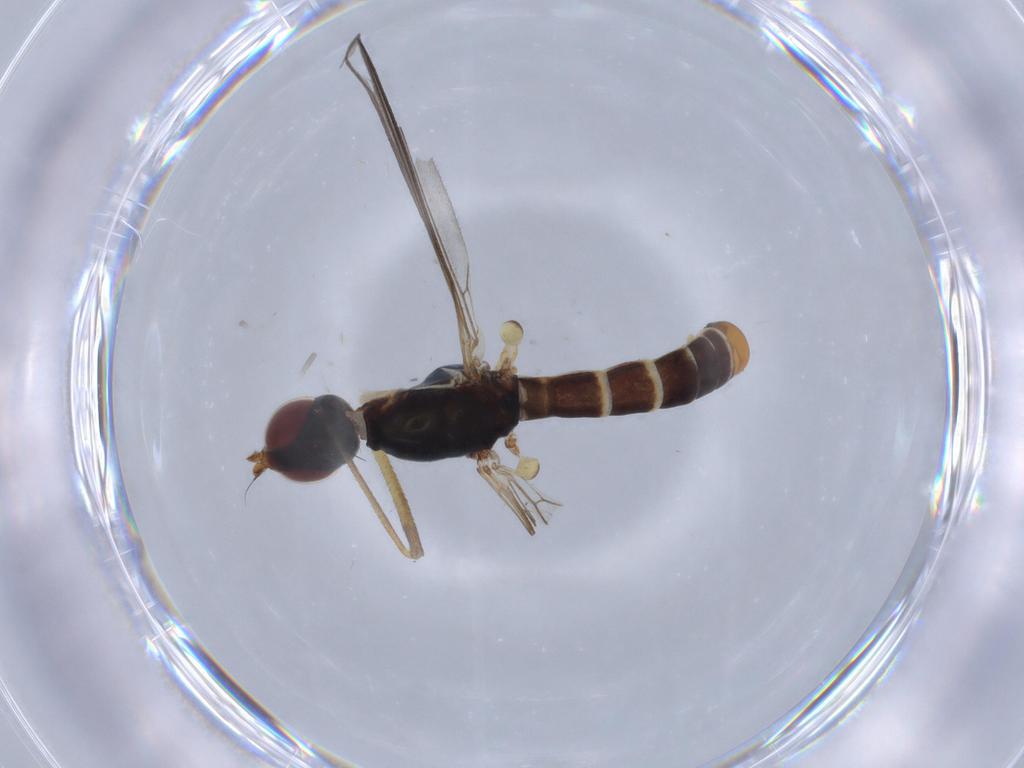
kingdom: Animalia
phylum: Arthropoda
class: Insecta
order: Diptera
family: Micropezidae
